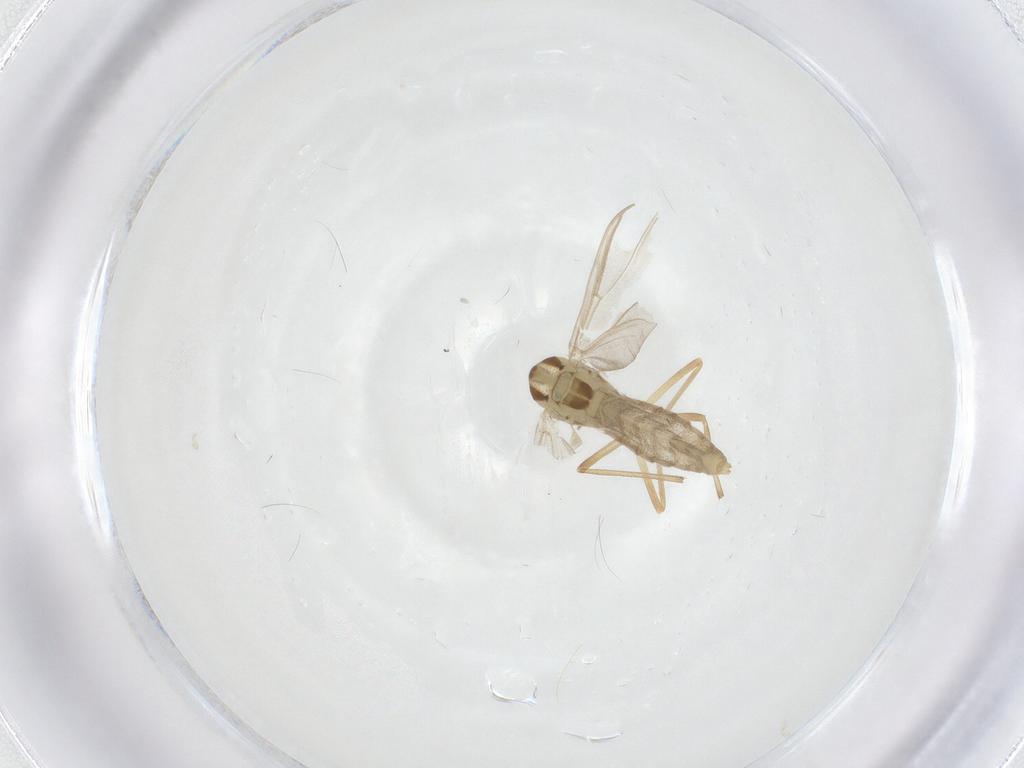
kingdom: Animalia
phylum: Arthropoda
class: Insecta
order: Diptera
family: Chironomidae
